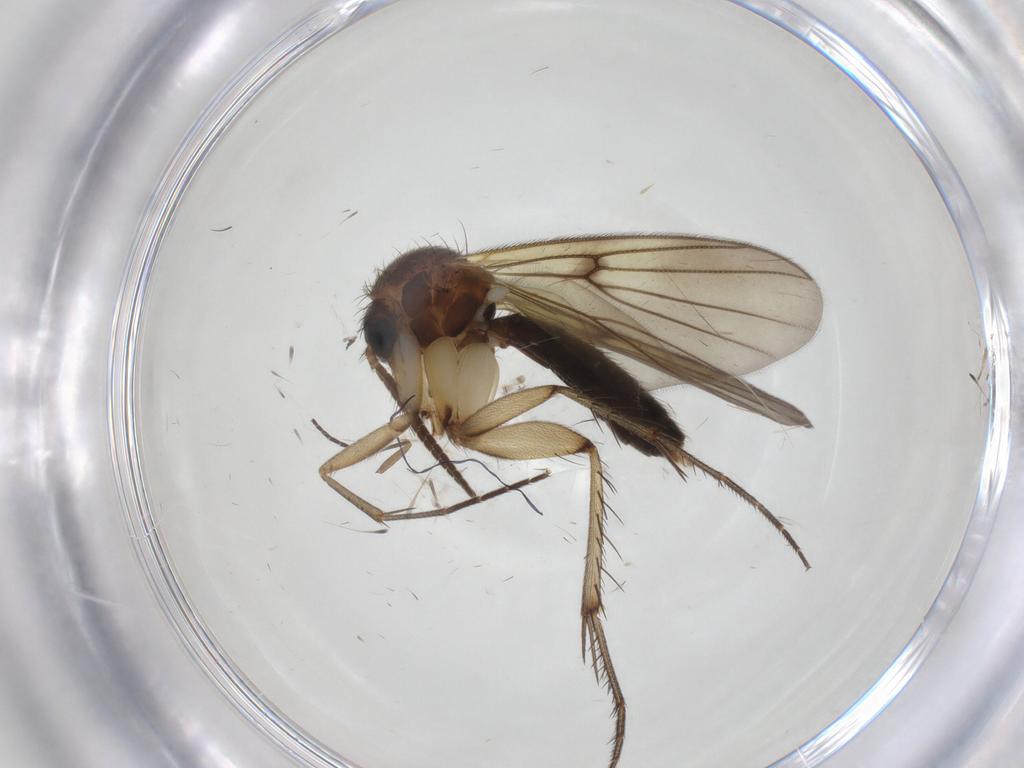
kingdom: Animalia
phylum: Arthropoda
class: Insecta
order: Diptera
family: Mycetophilidae
